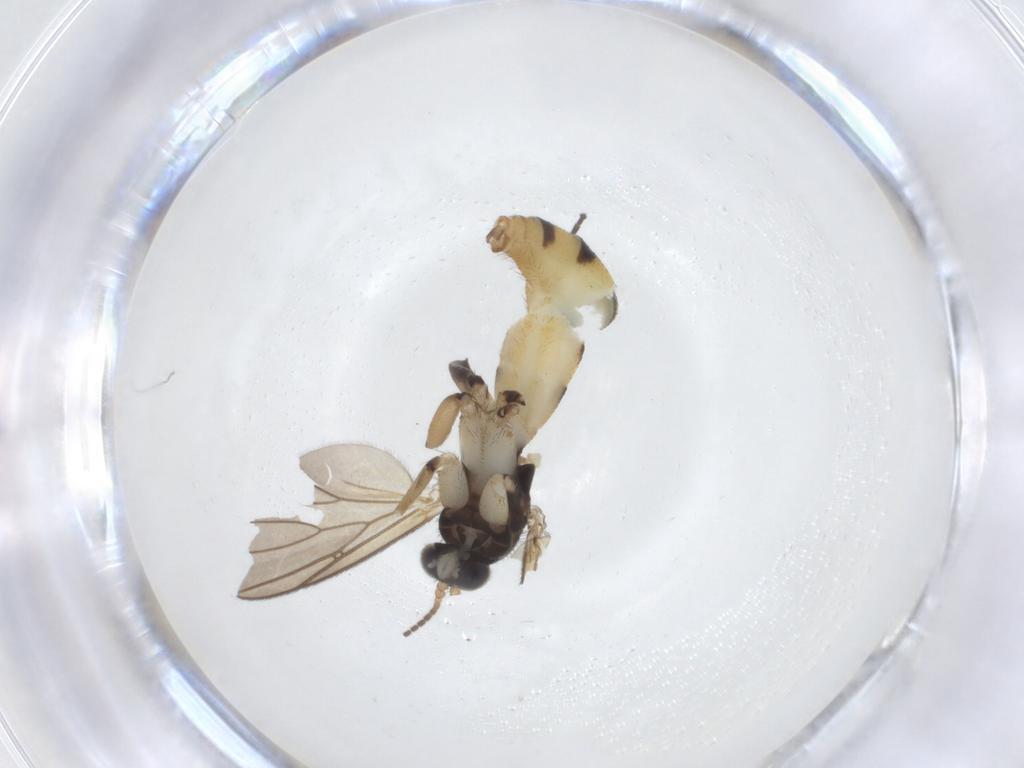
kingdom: Animalia
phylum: Arthropoda
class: Insecta
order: Diptera
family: Mycetophilidae
